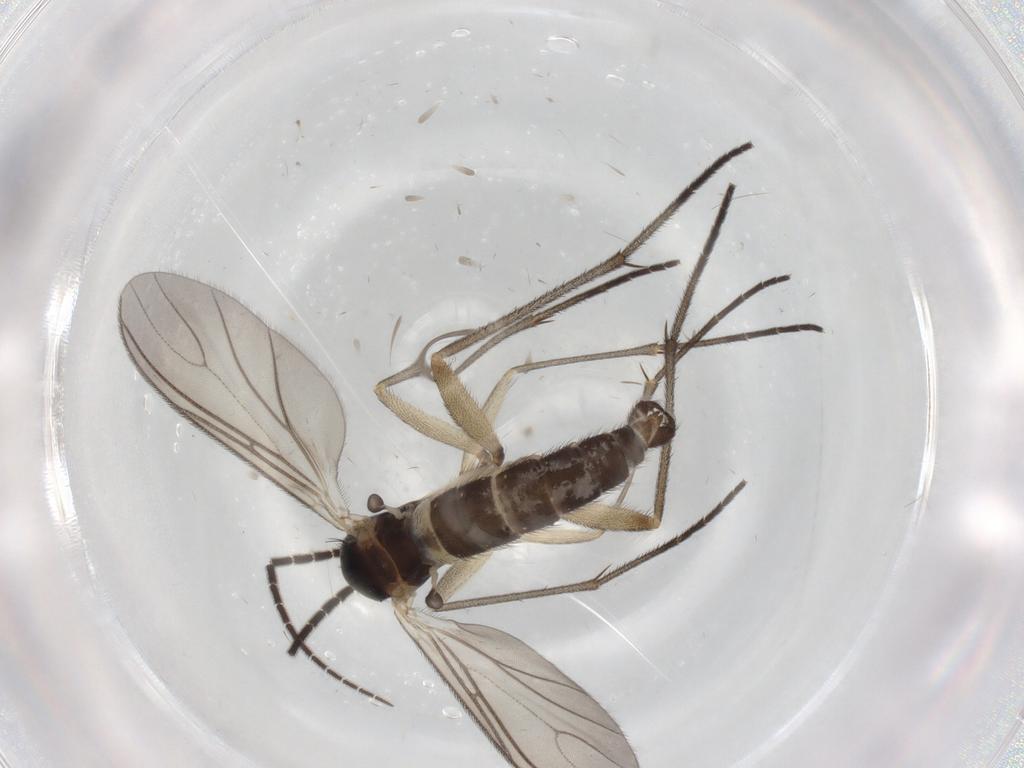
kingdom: Animalia
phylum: Arthropoda
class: Insecta
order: Diptera
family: Sciaridae
